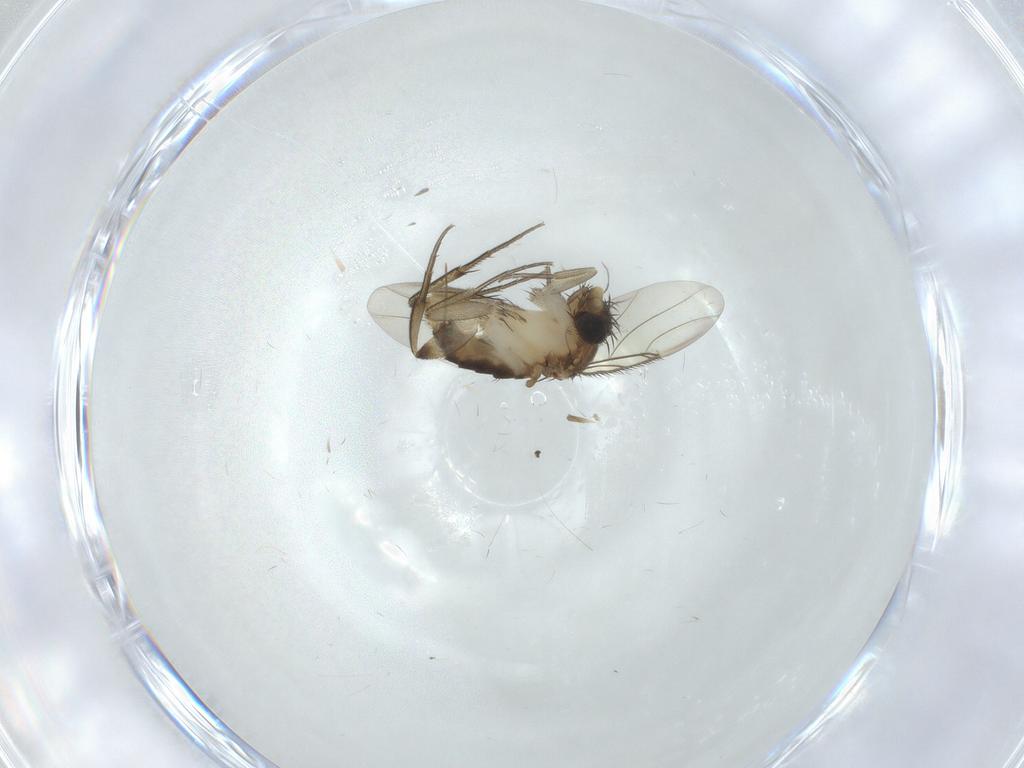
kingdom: Animalia
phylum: Arthropoda
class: Insecta
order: Diptera
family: Phoridae
